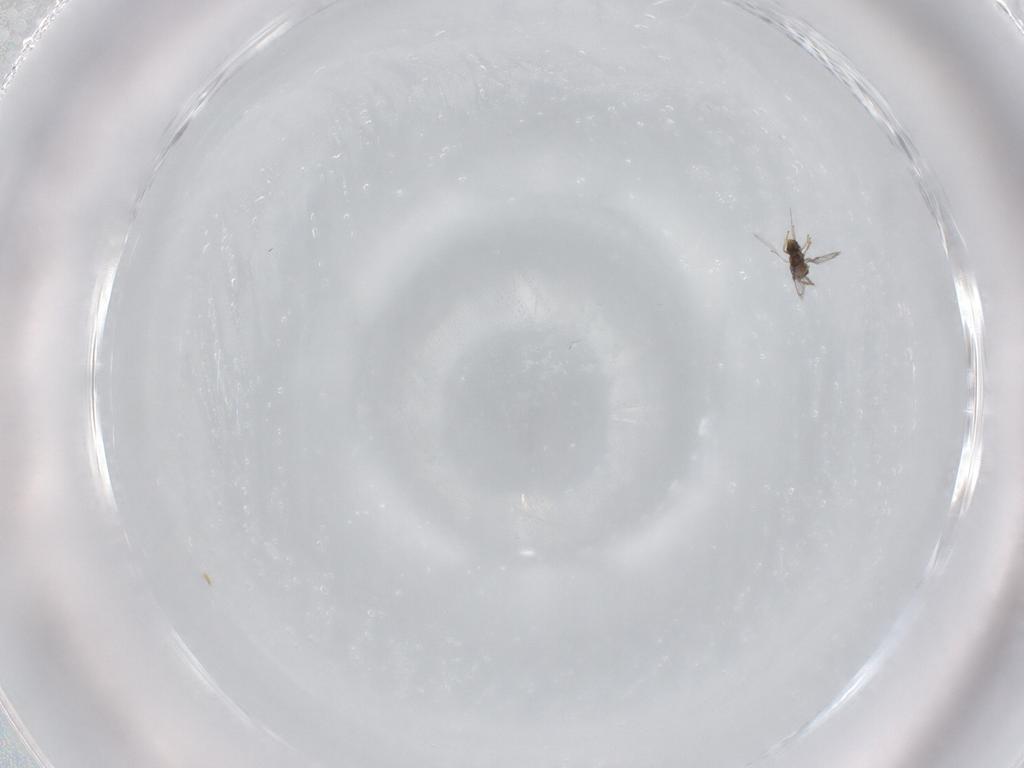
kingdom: Animalia
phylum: Arthropoda
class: Insecta
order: Hymenoptera
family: Trichogrammatidae
